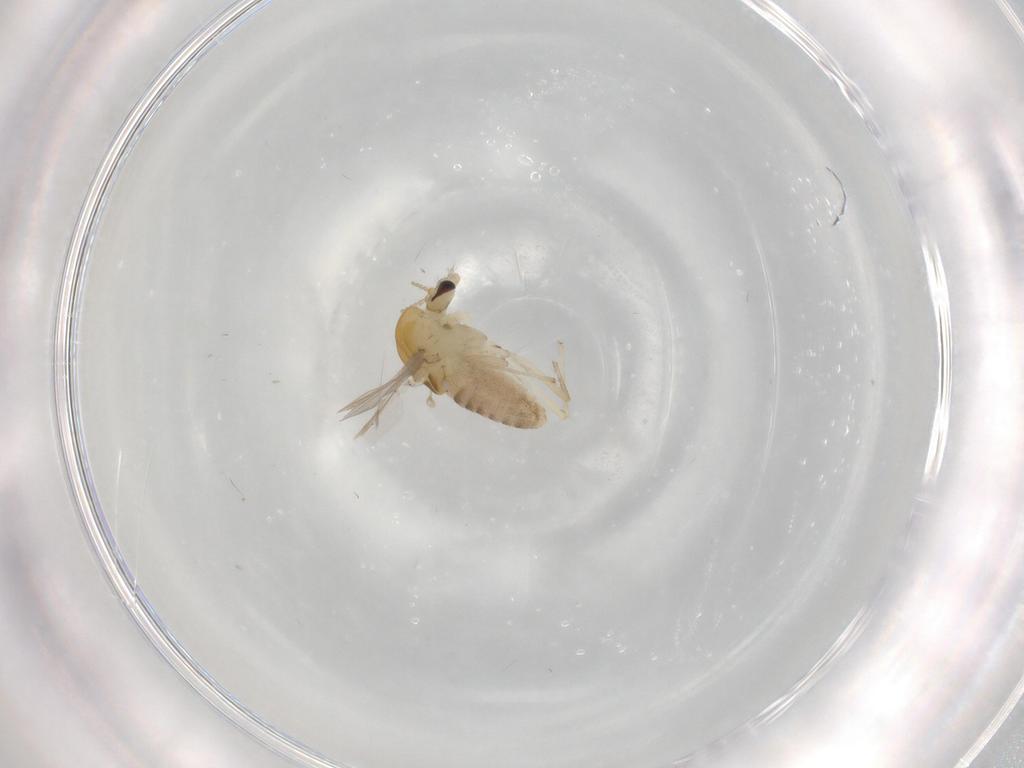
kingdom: Animalia
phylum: Arthropoda
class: Insecta
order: Diptera
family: Chironomidae
